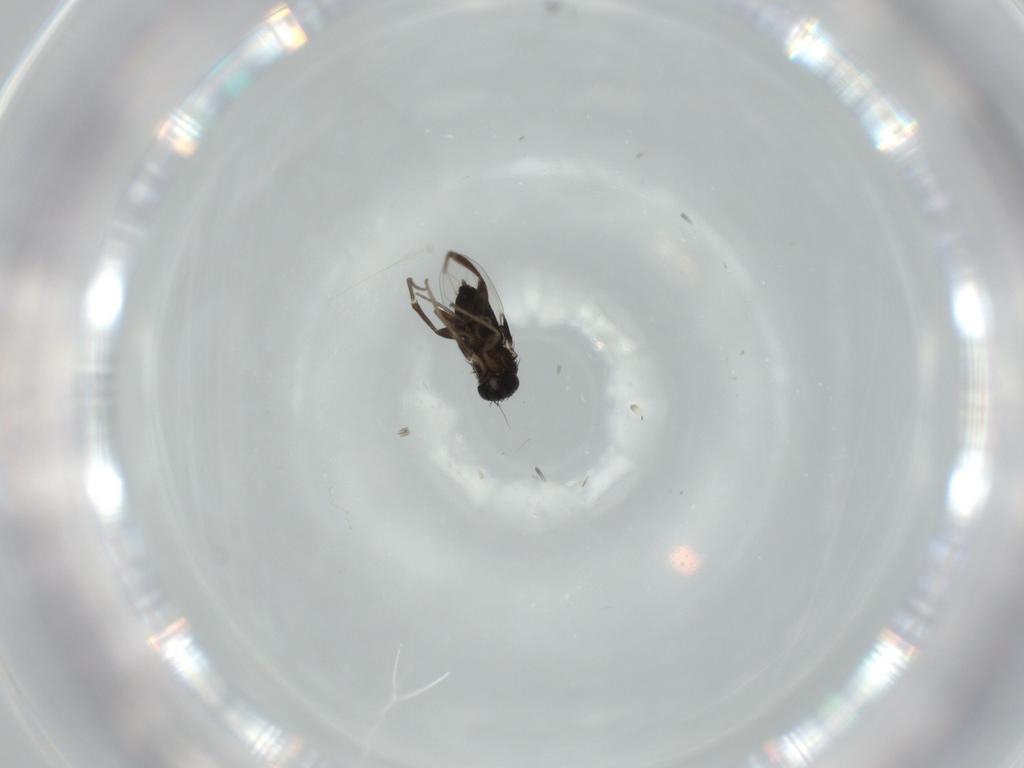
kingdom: Animalia
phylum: Arthropoda
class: Insecta
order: Diptera
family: Phoridae
